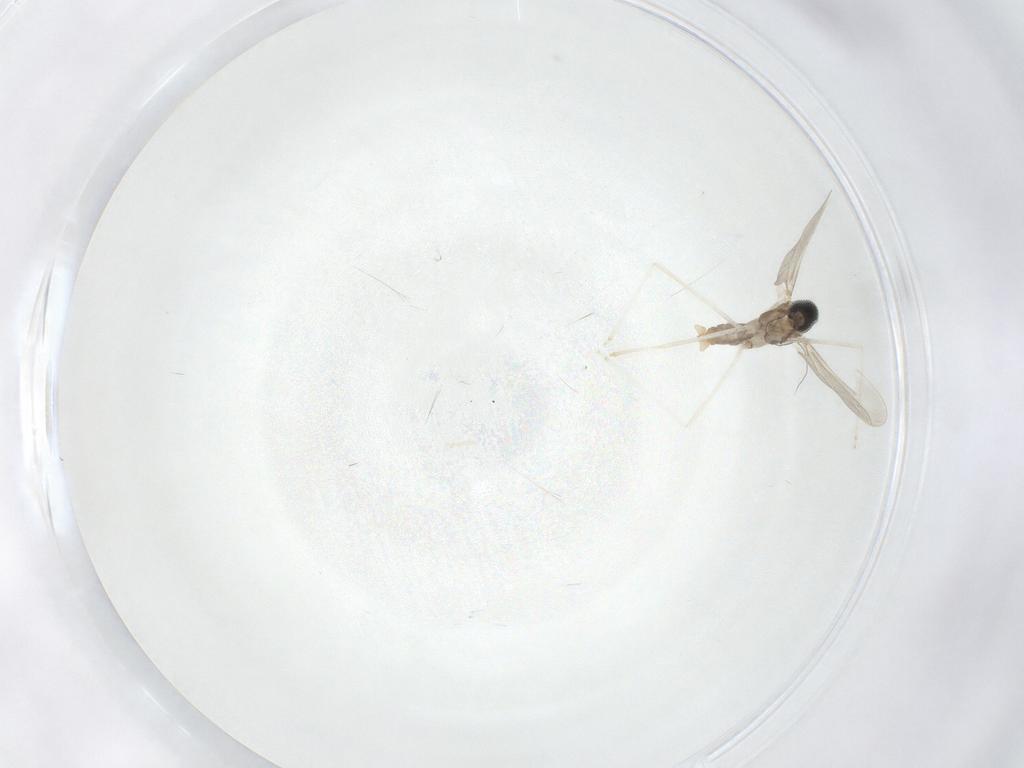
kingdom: Animalia
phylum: Arthropoda
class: Insecta
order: Diptera
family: Cecidomyiidae
